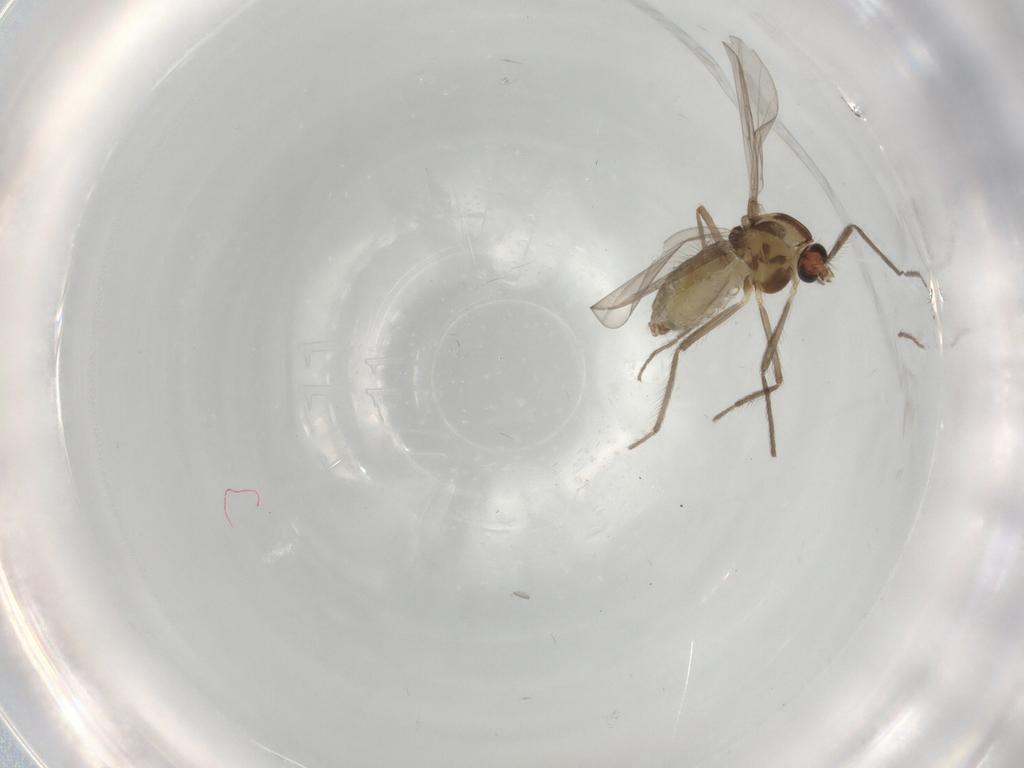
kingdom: Animalia
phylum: Arthropoda
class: Insecta
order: Diptera
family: Chironomidae
